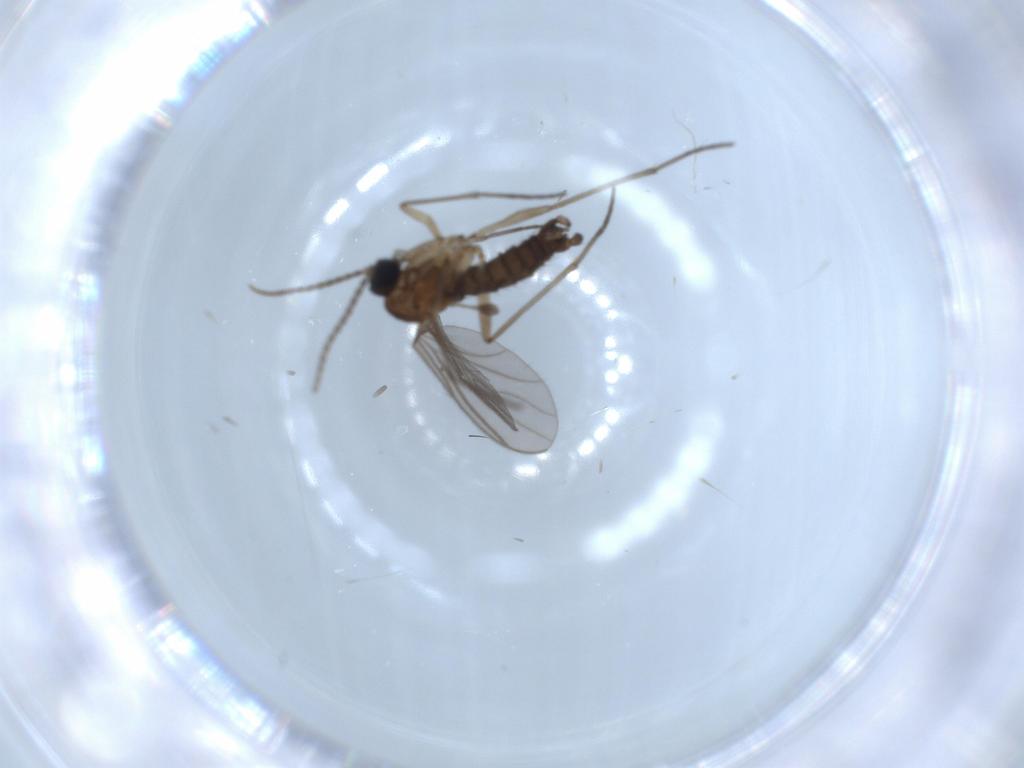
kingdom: Animalia
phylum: Arthropoda
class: Insecta
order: Diptera
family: Sciaridae
